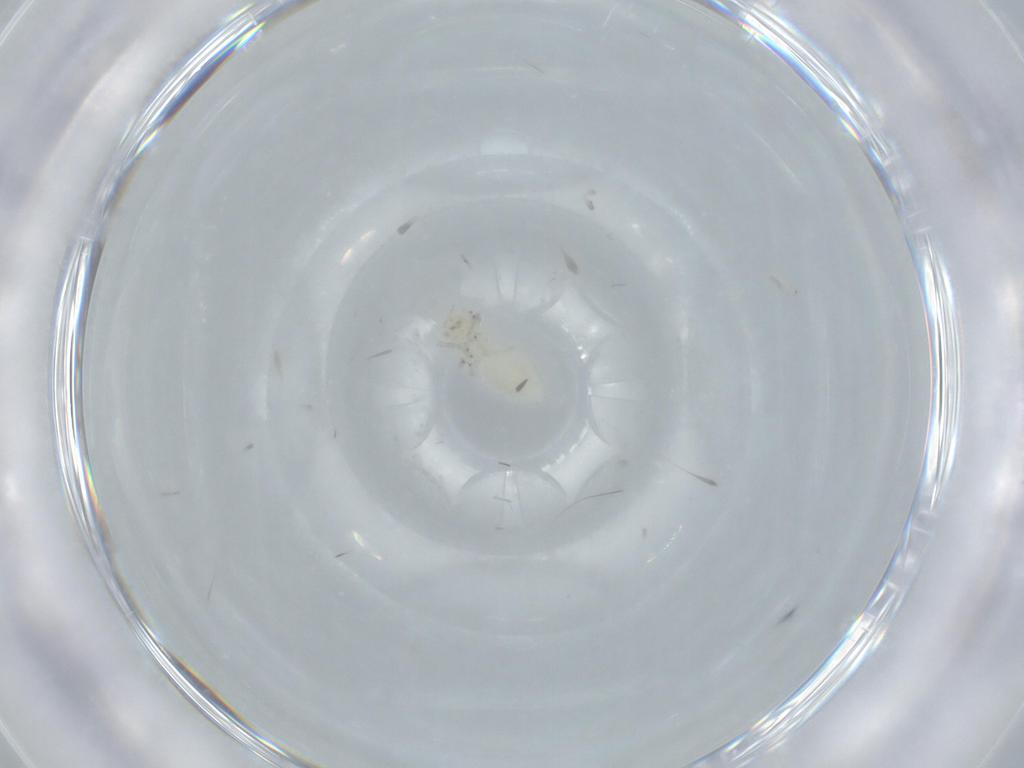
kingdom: Animalia
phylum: Arthropoda
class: Insecta
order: Psocodea
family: Caeciliusidae
